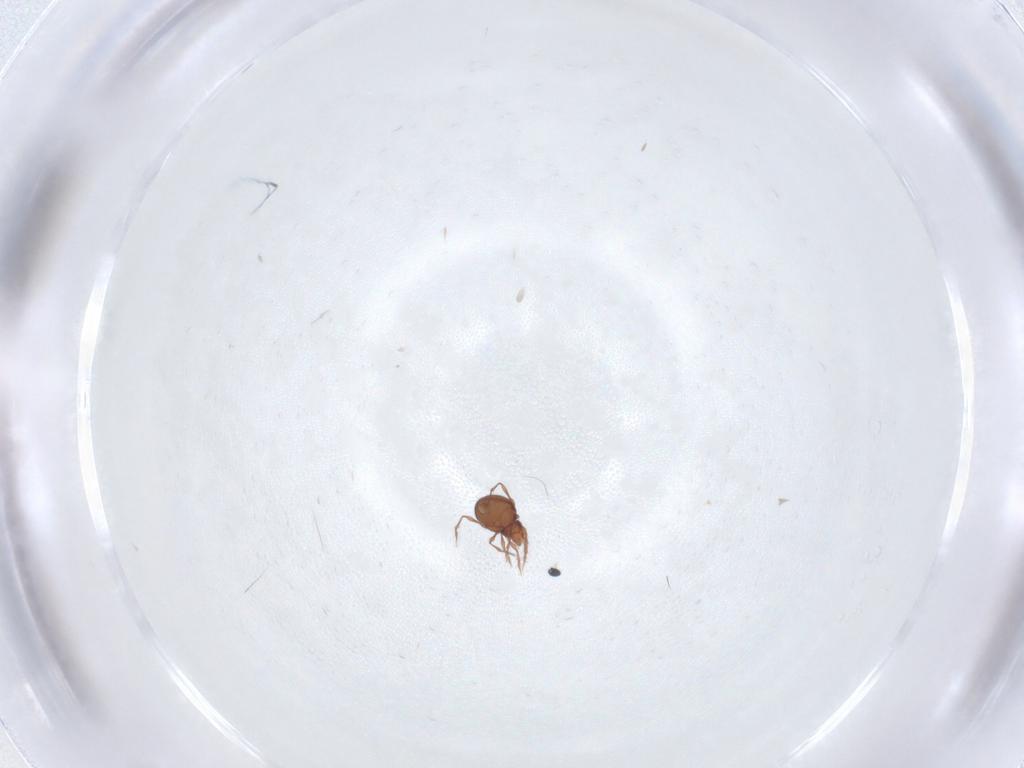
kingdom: Animalia
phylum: Arthropoda
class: Arachnida
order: Sarcoptiformes
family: Oppiidae
